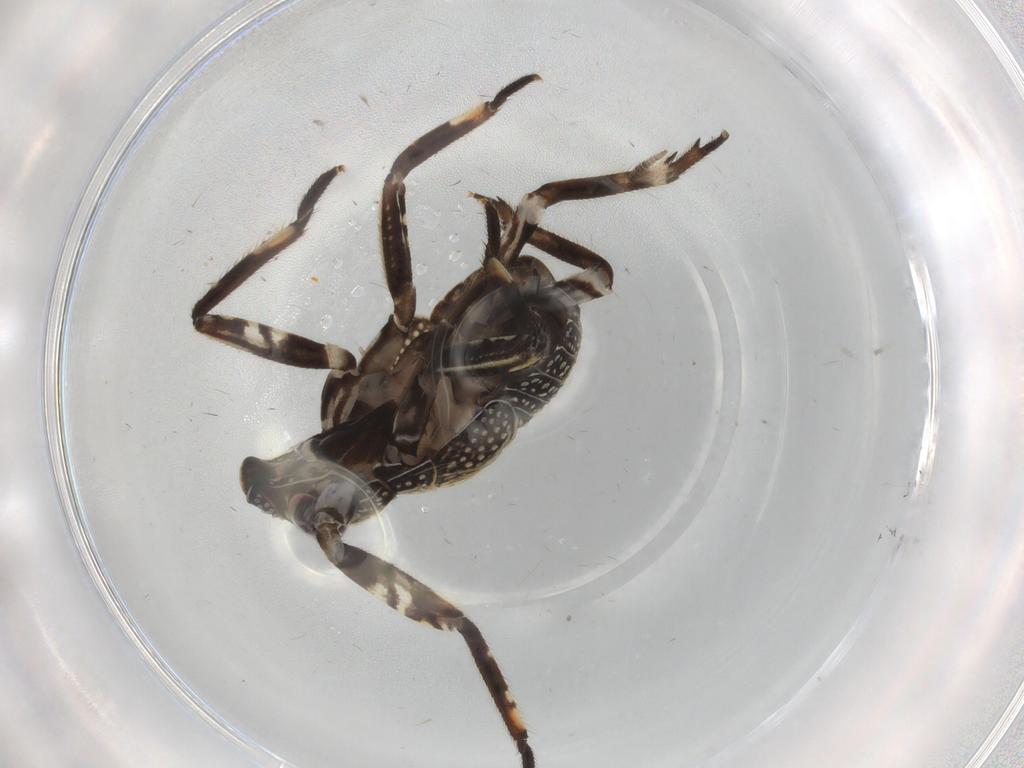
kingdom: Animalia
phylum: Arthropoda
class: Insecta
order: Hemiptera
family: Fulgoridae
